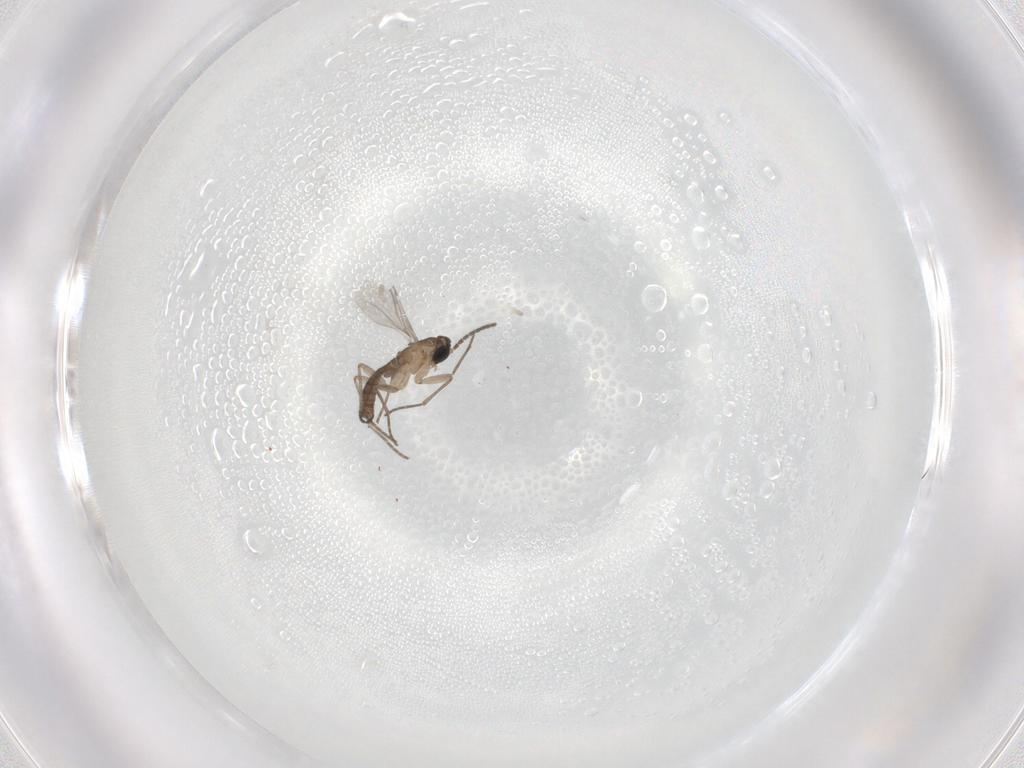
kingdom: Animalia
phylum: Arthropoda
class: Insecta
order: Diptera
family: Sciaridae
